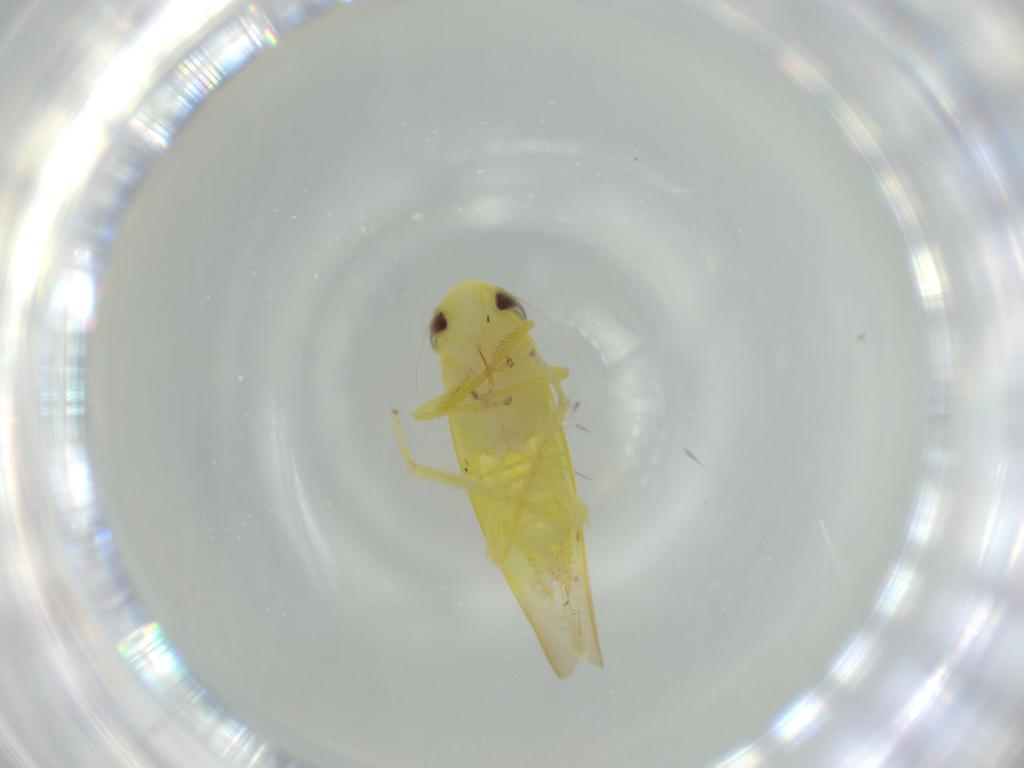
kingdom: Animalia
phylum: Arthropoda
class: Insecta
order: Hemiptera
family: Cicadellidae
